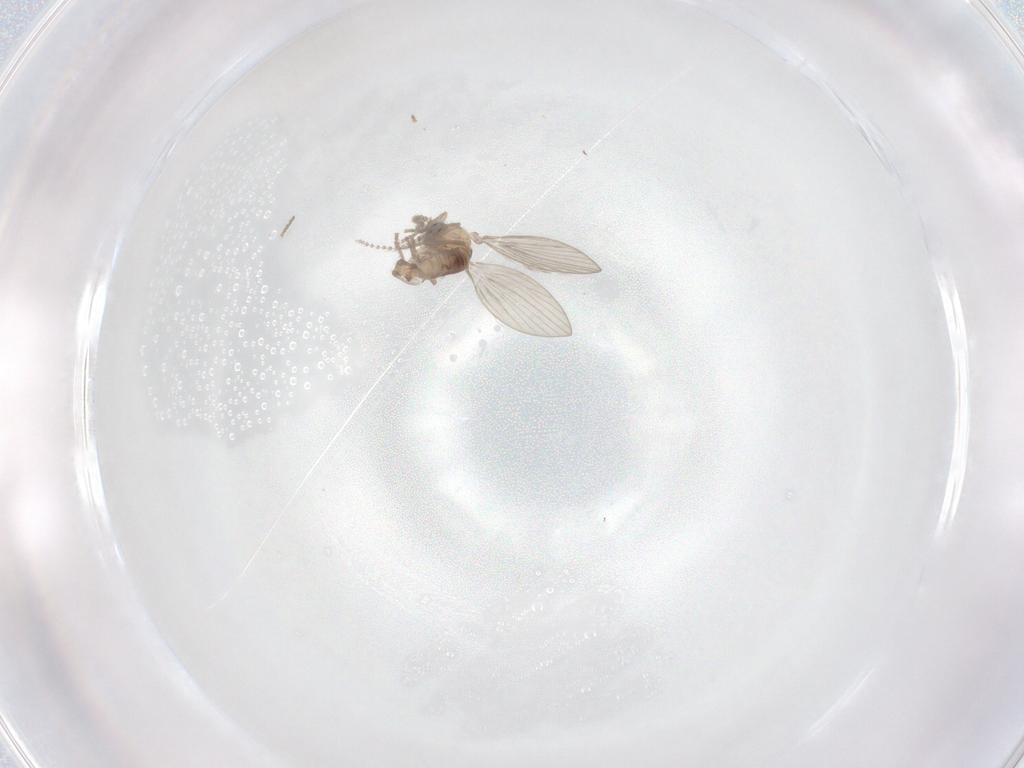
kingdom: Animalia
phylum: Arthropoda
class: Insecta
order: Diptera
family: Psychodidae
